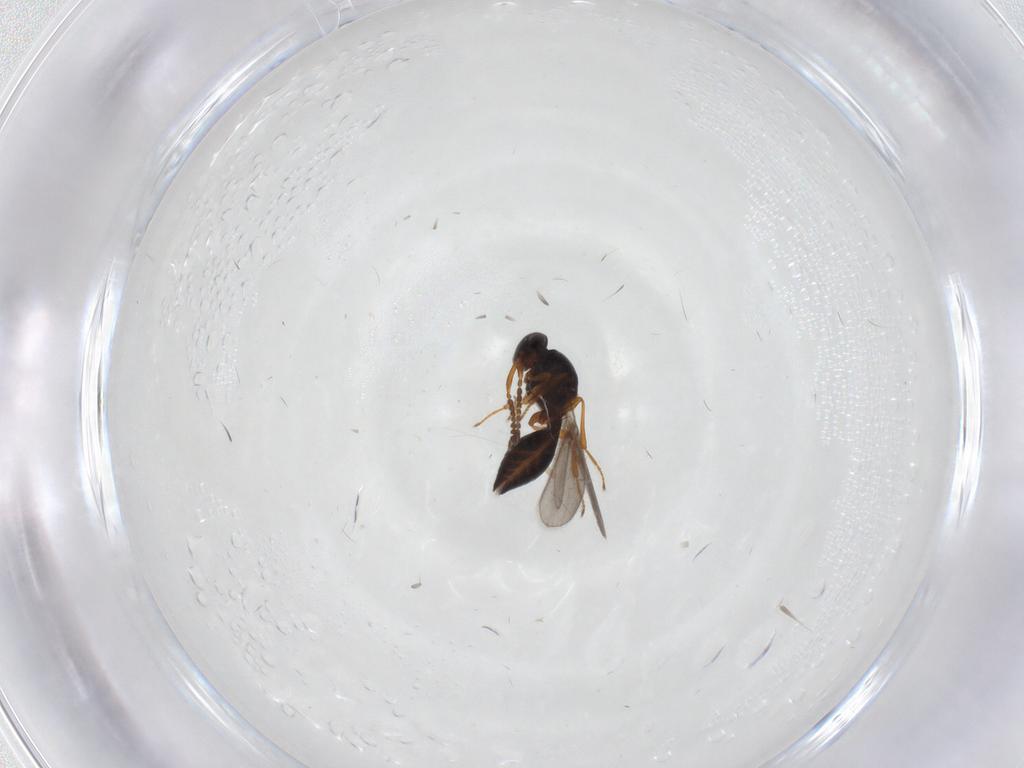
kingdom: Animalia
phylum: Arthropoda
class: Insecta
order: Hymenoptera
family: Platygastridae
